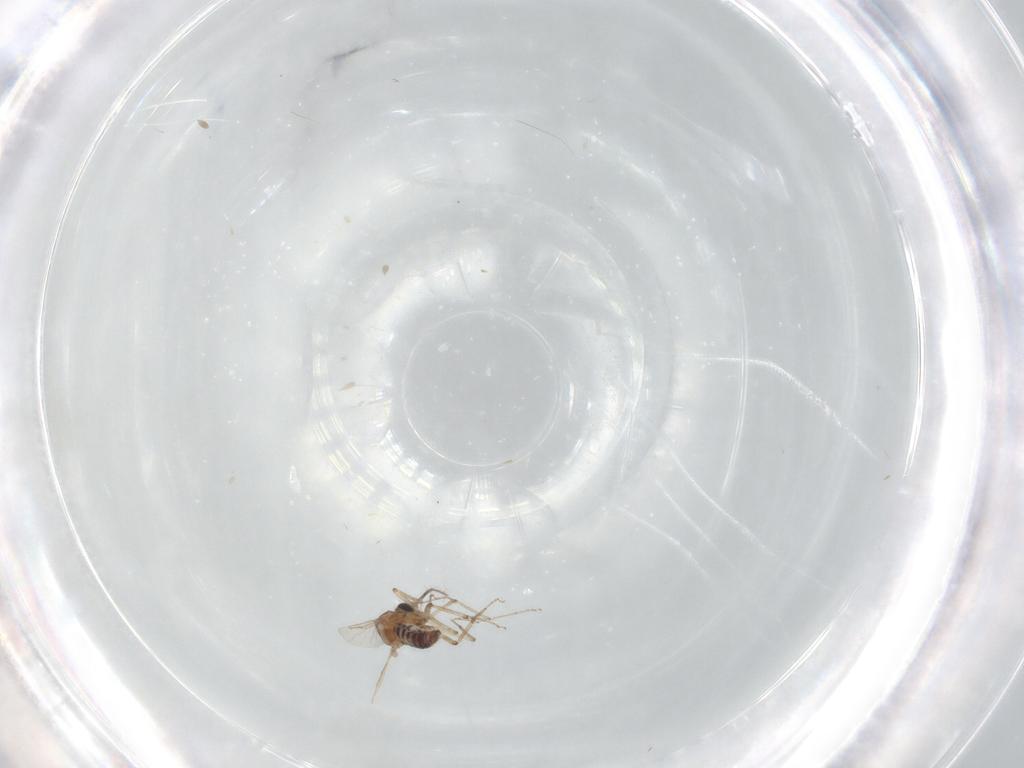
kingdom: Animalia
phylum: Arthropoda
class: Insecta
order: Diptera
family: Ceratopogonidae
